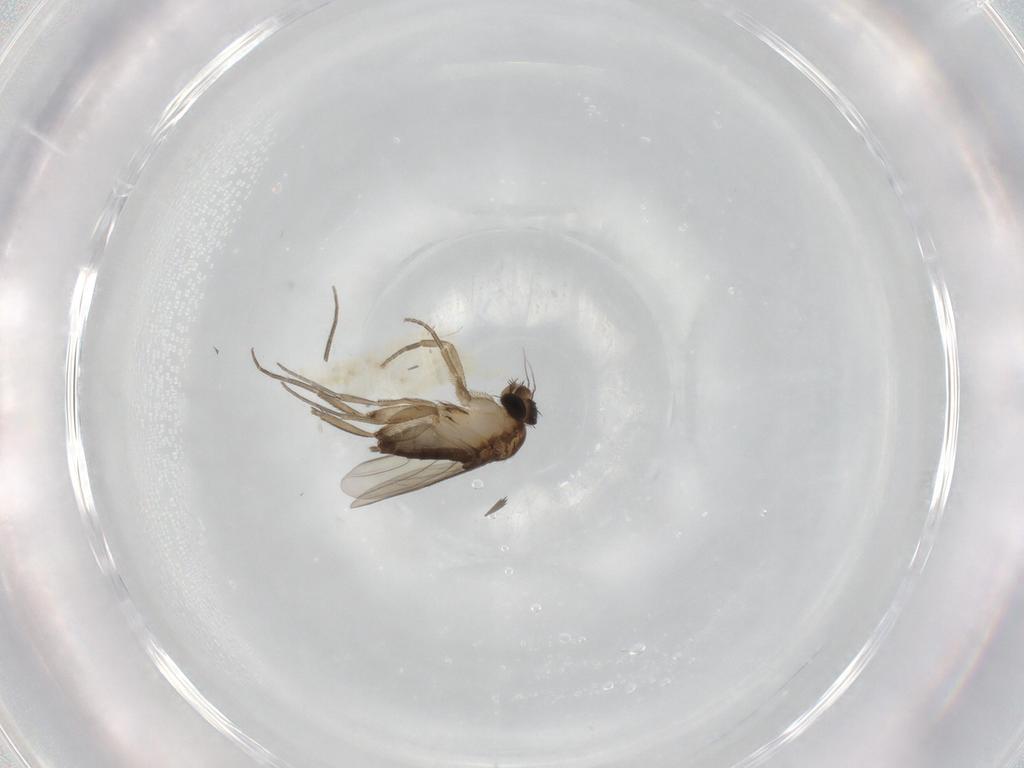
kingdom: Animalia
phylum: Arthropoda
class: Insecta
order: Diptera
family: Phoridae
